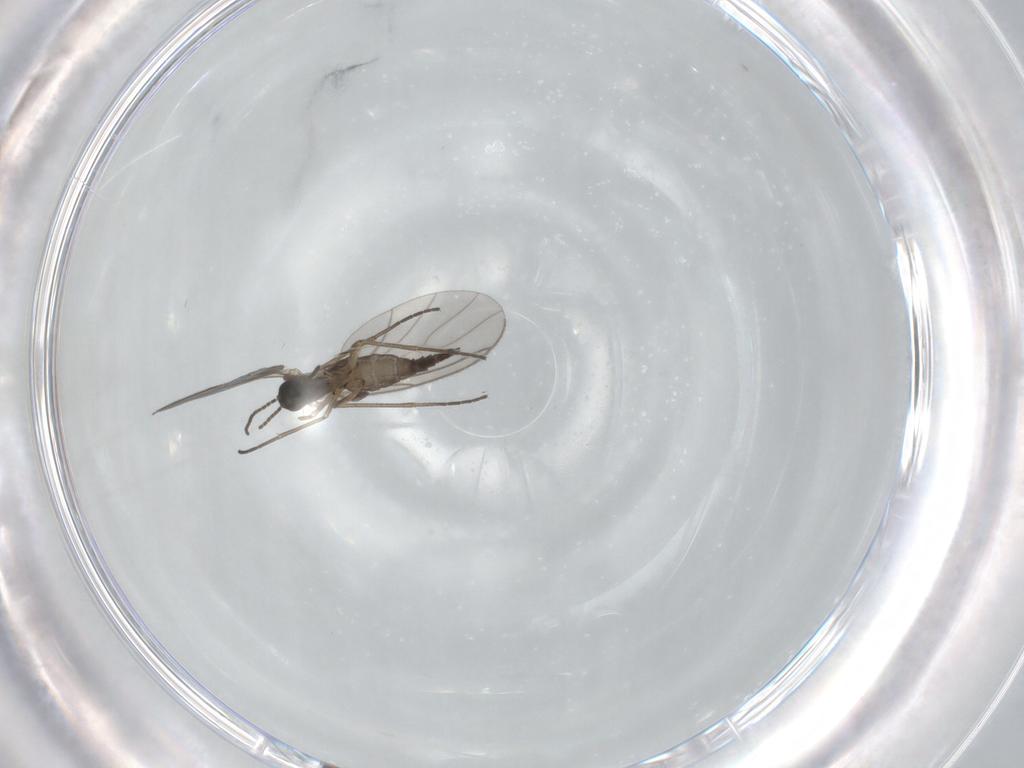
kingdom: Animalia
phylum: Arthropoda
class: Insecta
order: Diptera
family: Sciaridae
